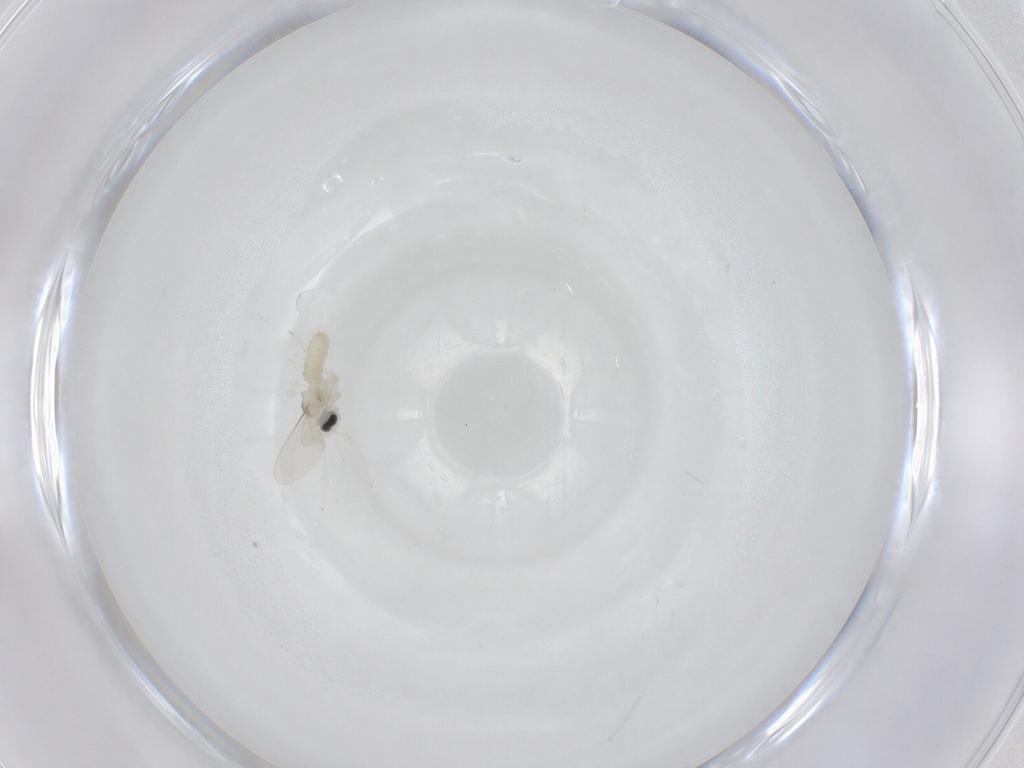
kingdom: Animalia
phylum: Arthropoda
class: Insecta
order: Diptera
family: Cecidomyiidae
